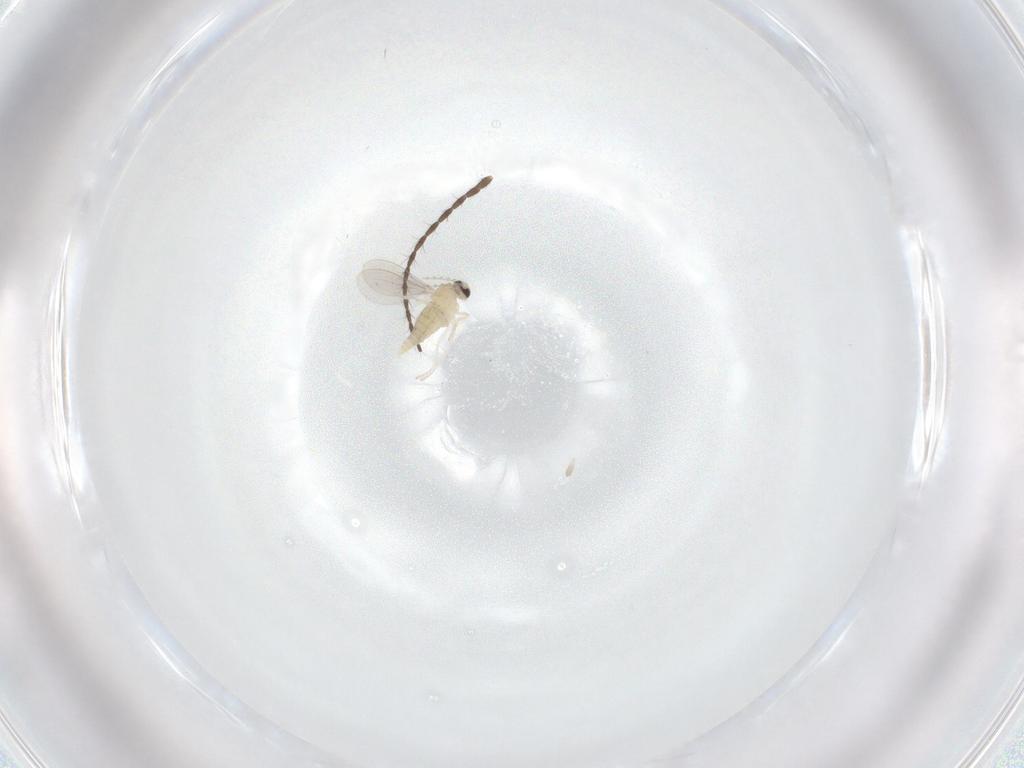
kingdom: Animalia
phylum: Arthropoda
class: Insecta
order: Diptera
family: Cecidomyiidae
